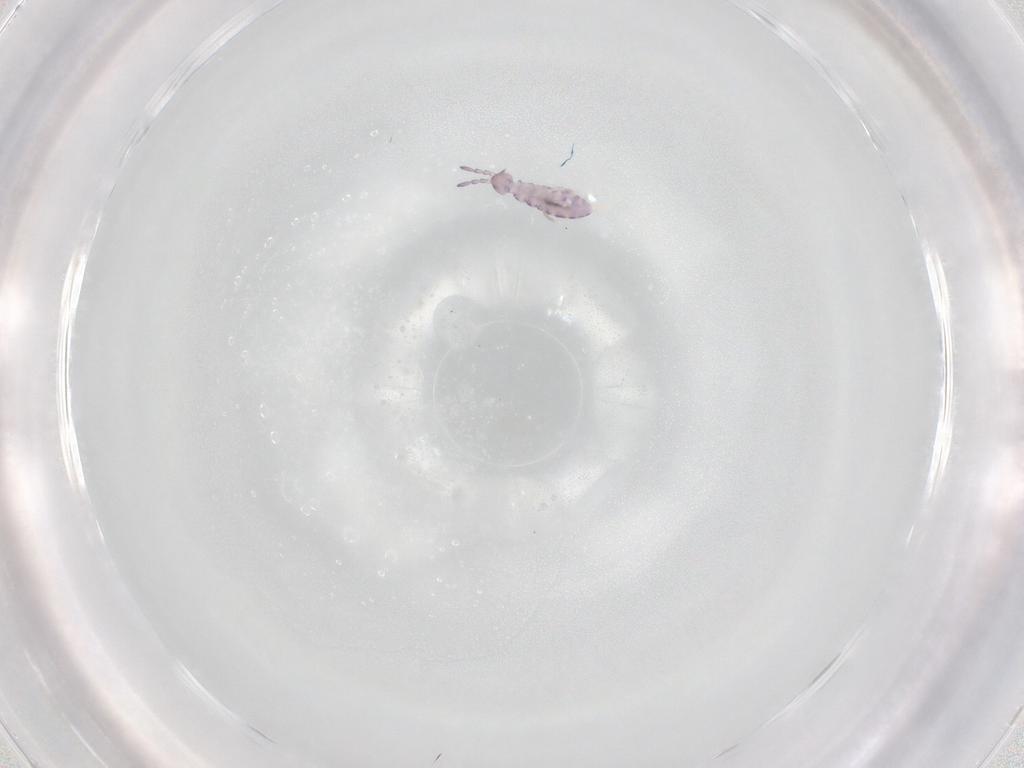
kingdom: Animalia
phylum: Arthropoda
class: Collembola
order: Entomobryomorpha
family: Isotomidae
